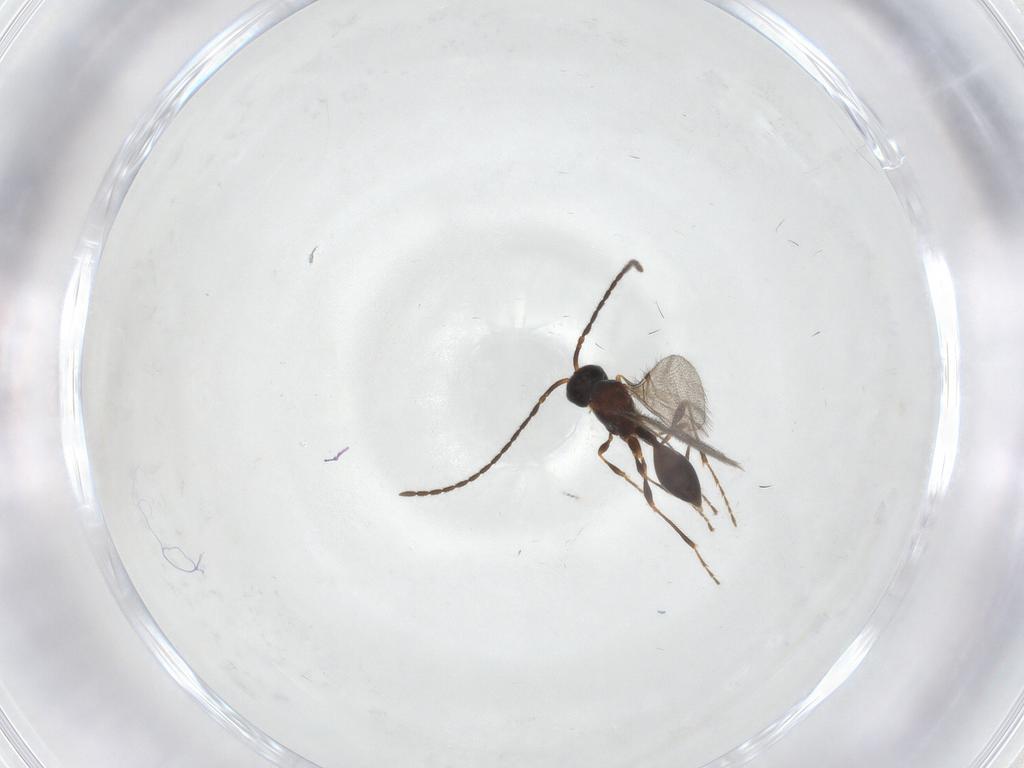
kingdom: Animalia
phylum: Arthropoda
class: Insecta
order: Hymenoptera
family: Diapriidae
